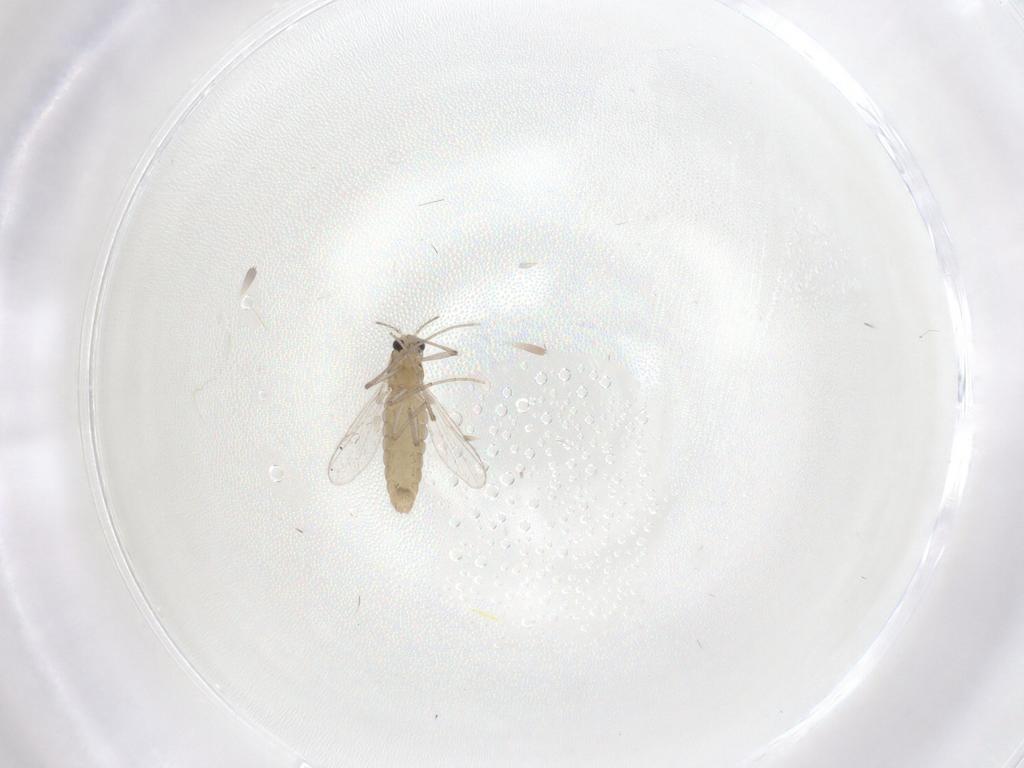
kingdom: Animalia
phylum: Arthropoda
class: Insecta
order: Diptera
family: Chironomidae
